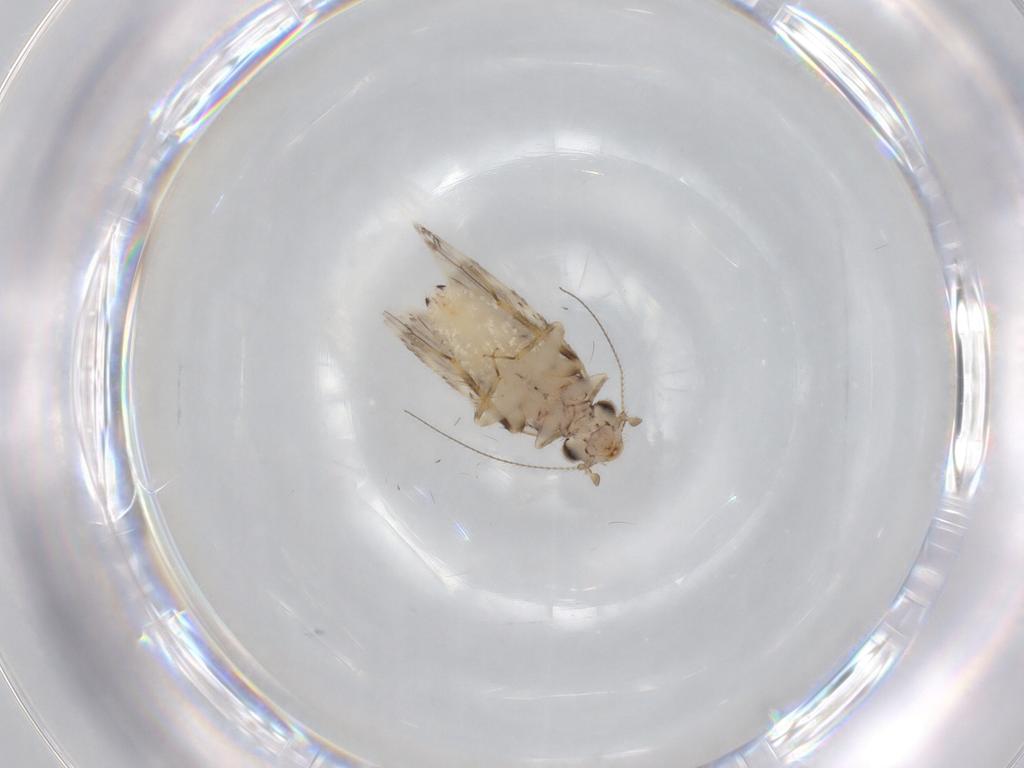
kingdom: Animalia
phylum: Arthropoda
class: Insecta
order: Psocodea
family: Lepidopsocidae
